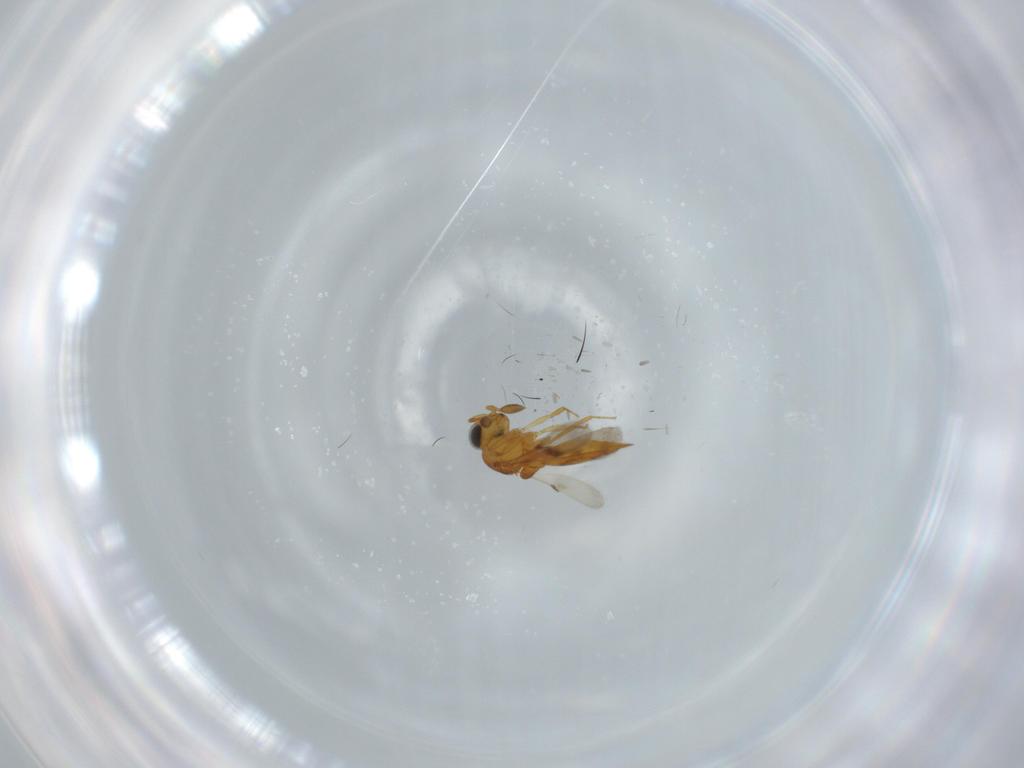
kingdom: Animalia
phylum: Arthropoda
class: Insecta
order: Hymenoptera
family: Scelionidae
